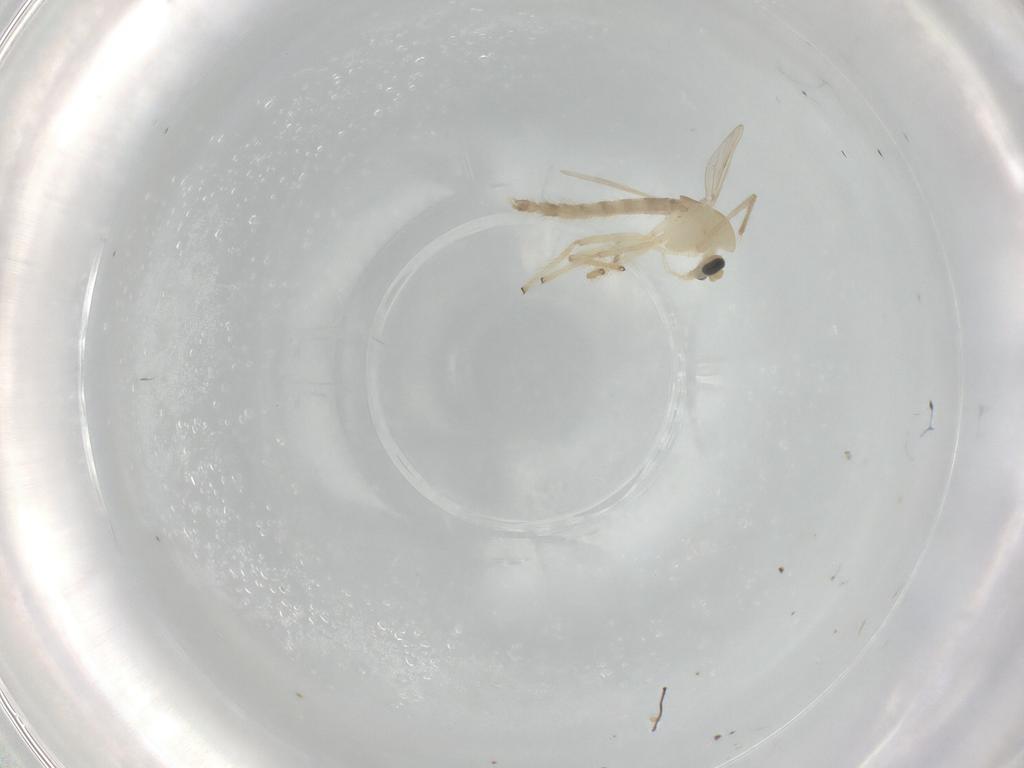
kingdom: Animalia
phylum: Arthropoda
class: Insecta
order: Diptera
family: Chironomidae
